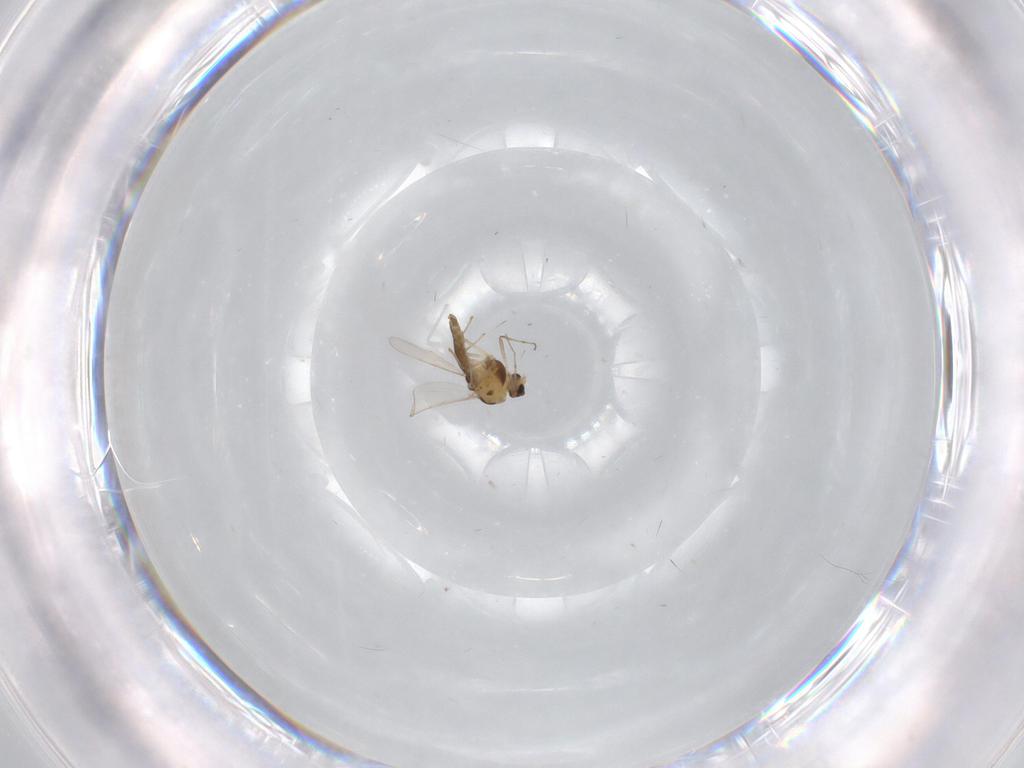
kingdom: Animalia
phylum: Arthropoda
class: Insecta
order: Diptera
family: Chironomidae
